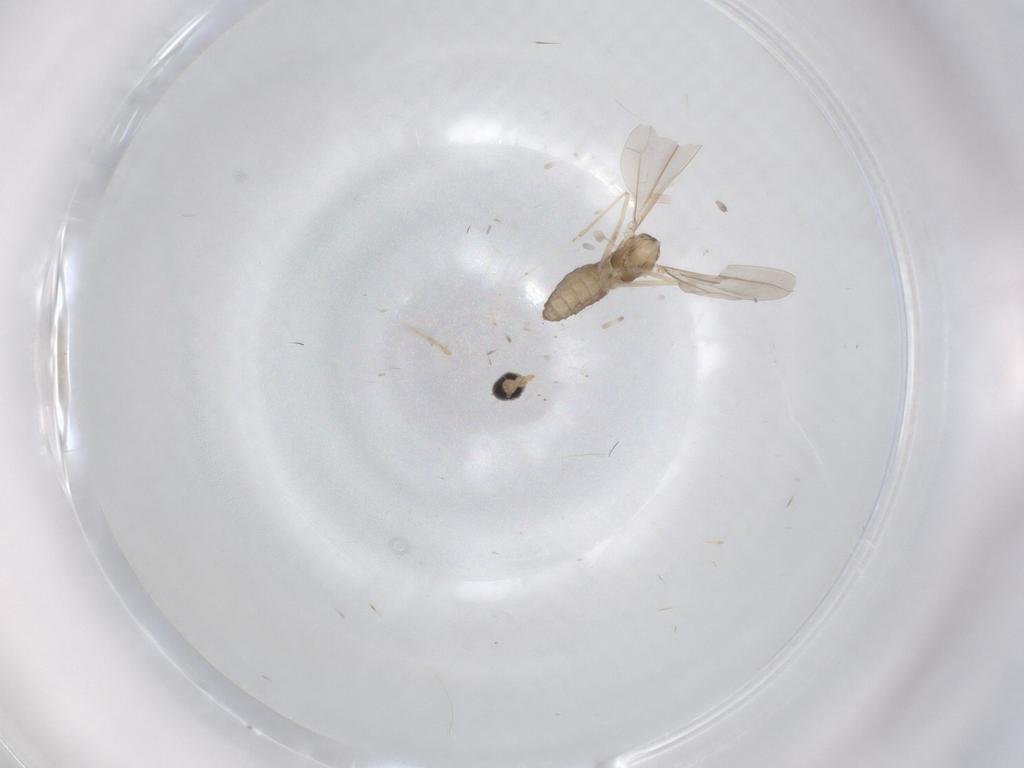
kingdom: Animalia
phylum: Arthropoda
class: Insecta
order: Diptera
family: Cecidomyiidae
